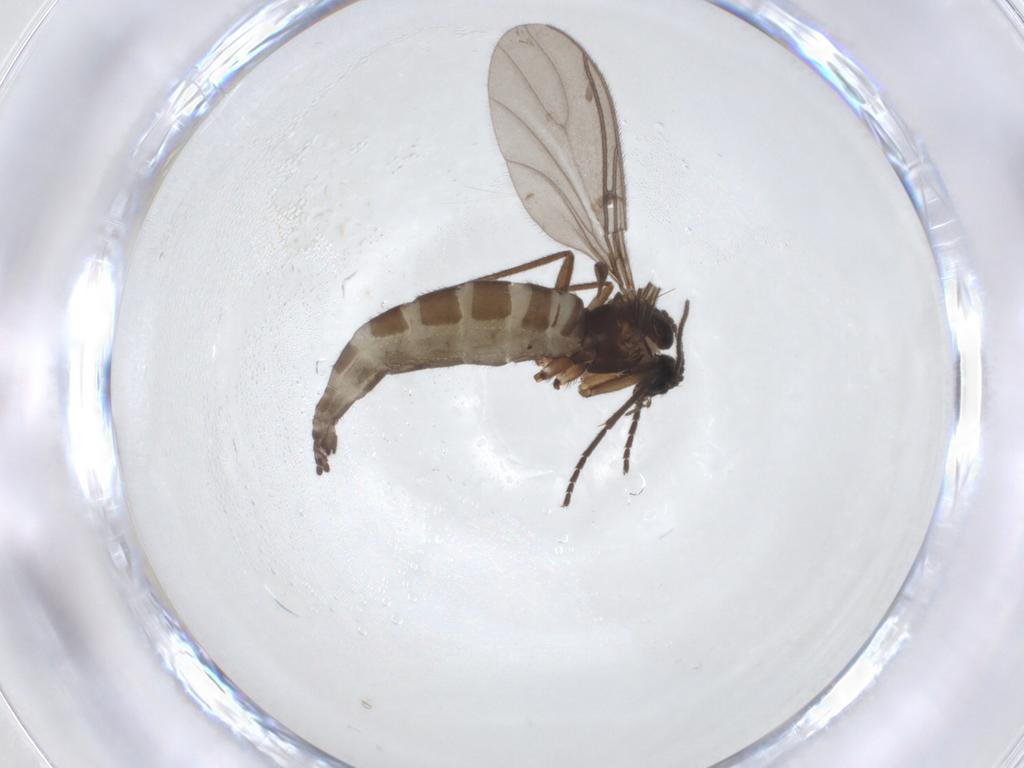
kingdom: Animalia
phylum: Arthropoda
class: Insecta
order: Diptera
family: Sciaridae
